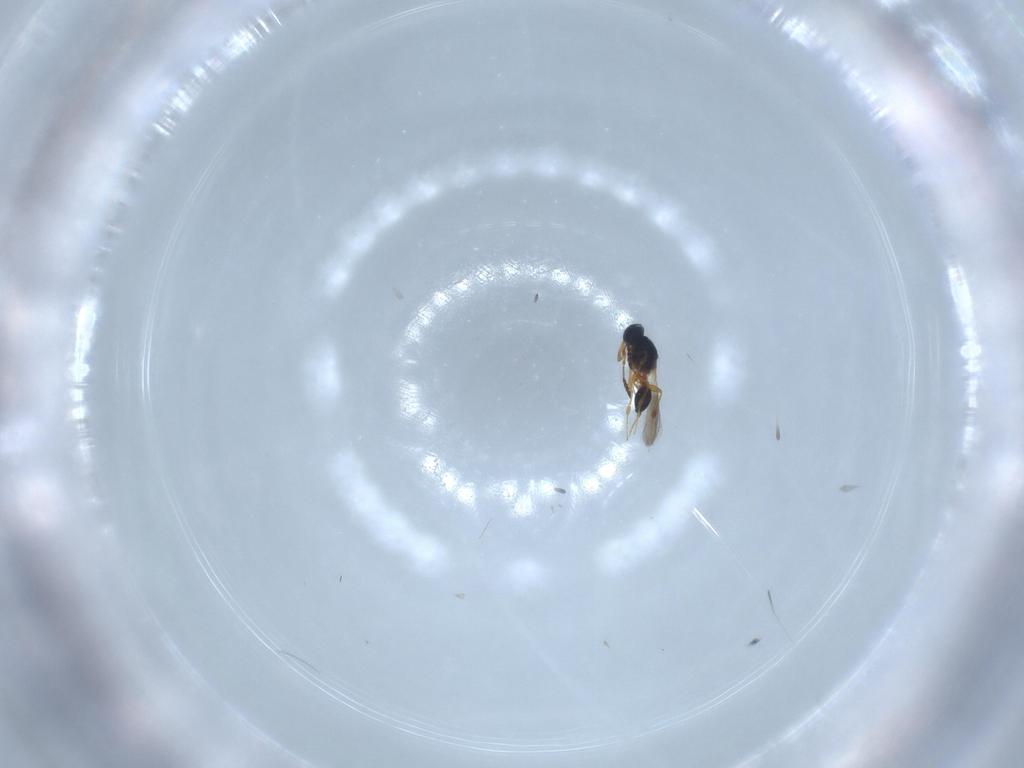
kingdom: Animalia
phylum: Arthropoda
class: Insecta
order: Hymenoptera
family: Platygastridae
